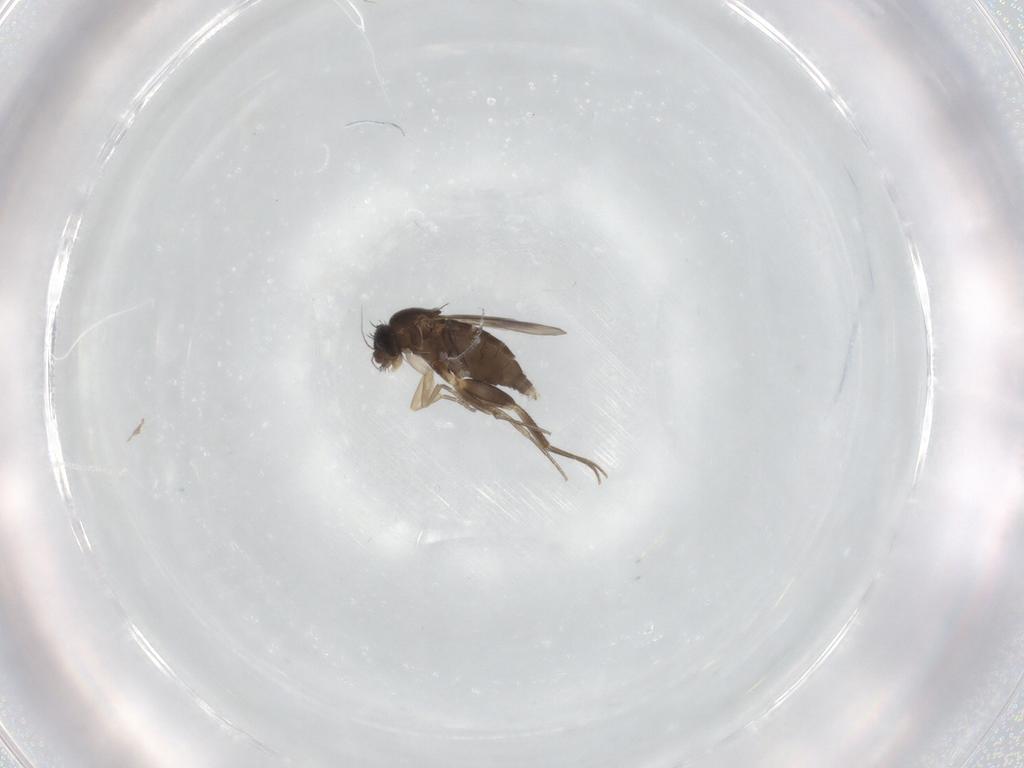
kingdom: Animalia
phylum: Arthropoda
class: Insecta
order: Diptera
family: Phoridae
